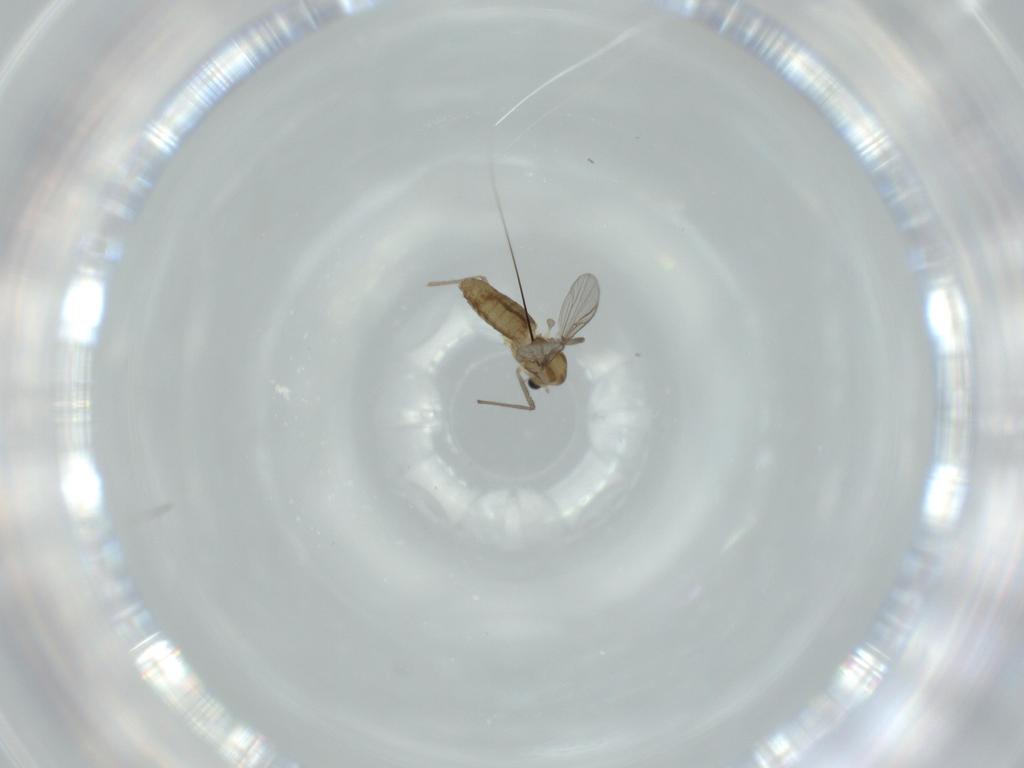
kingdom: Animalia
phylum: Arthropoda
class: Insecta
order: Diptera
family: Chironomidae
